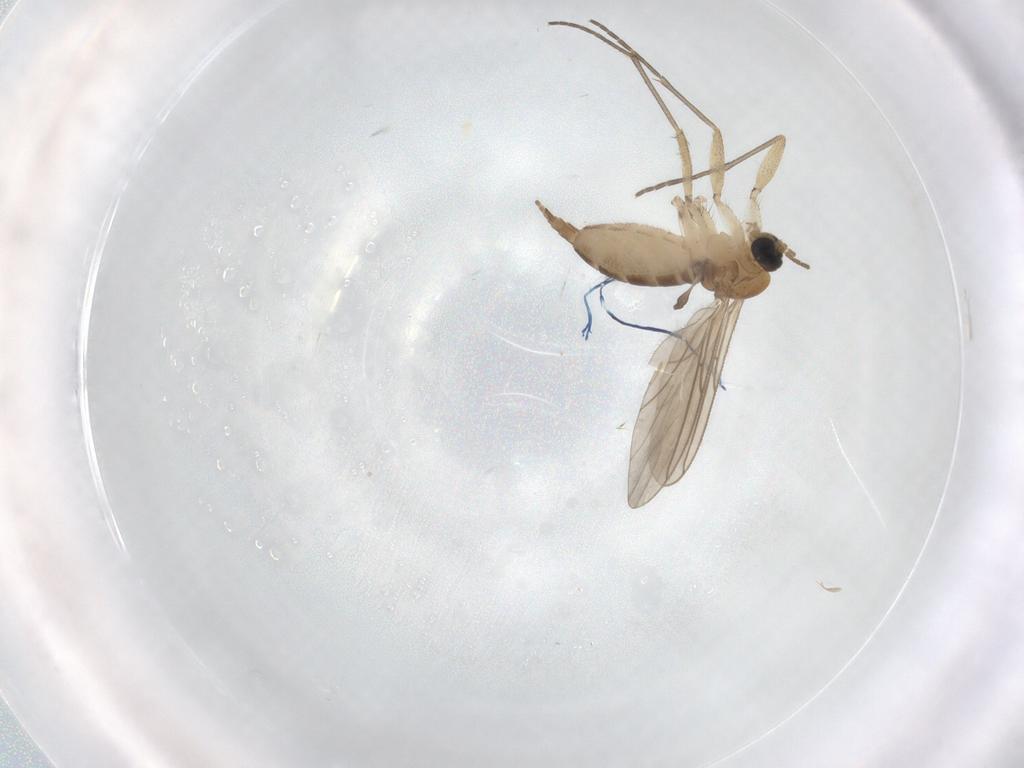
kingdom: Animalia
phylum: Arthropoda
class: Insecta
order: Diptera
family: Sciaridae
